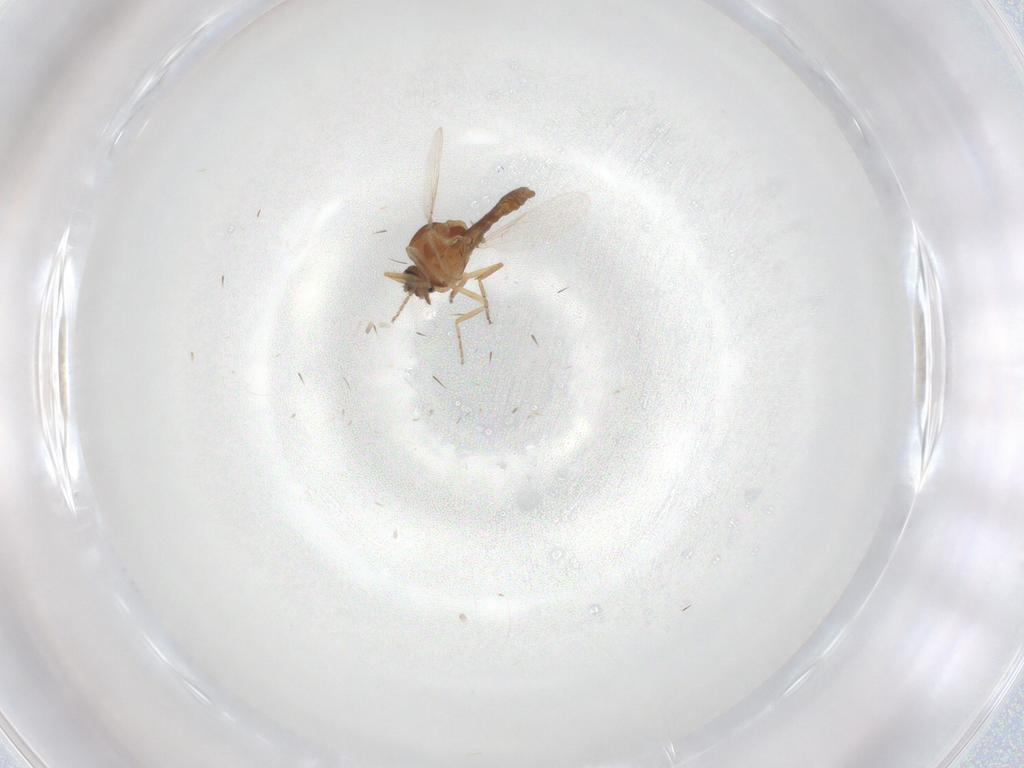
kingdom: Animalia
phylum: Arthropoda
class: Insecta
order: Diptera
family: Ceratopogonidae
